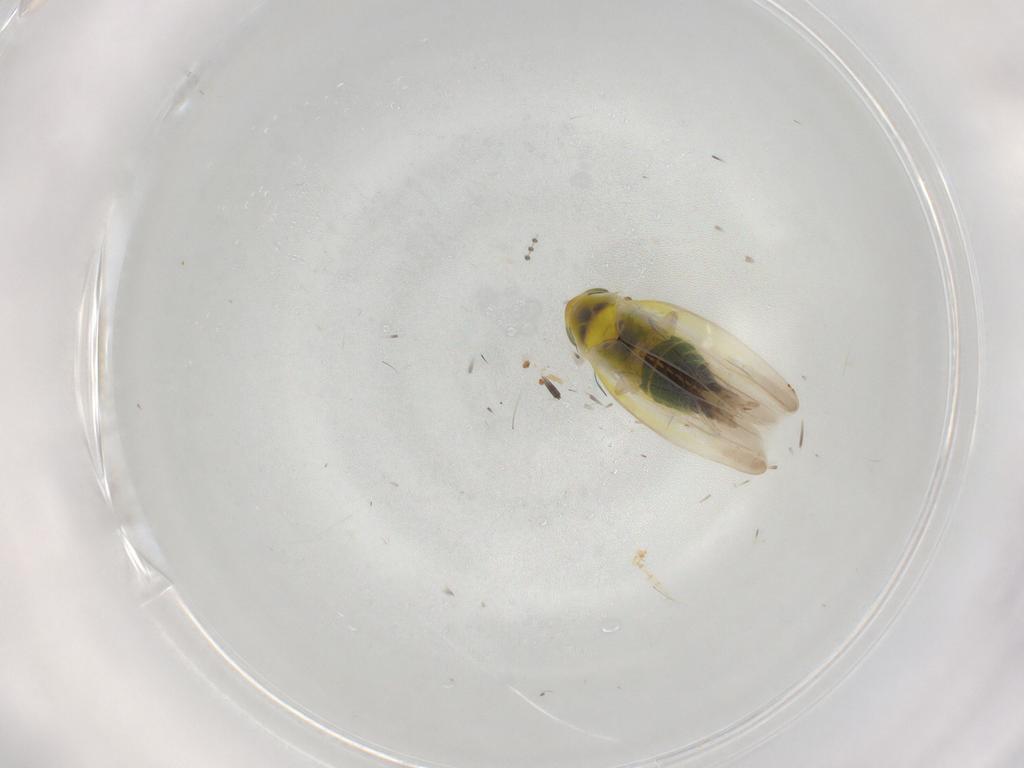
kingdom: Animalia
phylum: Arthropoda
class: Insecta
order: Hemiptera
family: Cicadellidae
